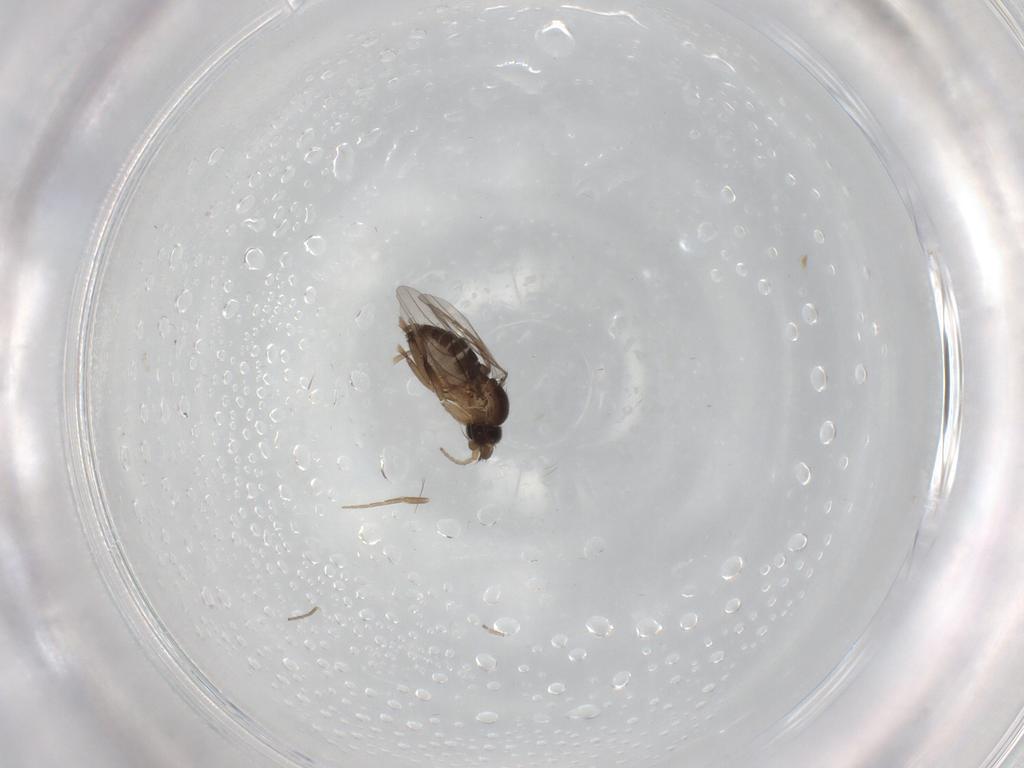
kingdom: Animalia
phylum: Arthropoda
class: Insecta
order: Diptera
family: Phoridae
